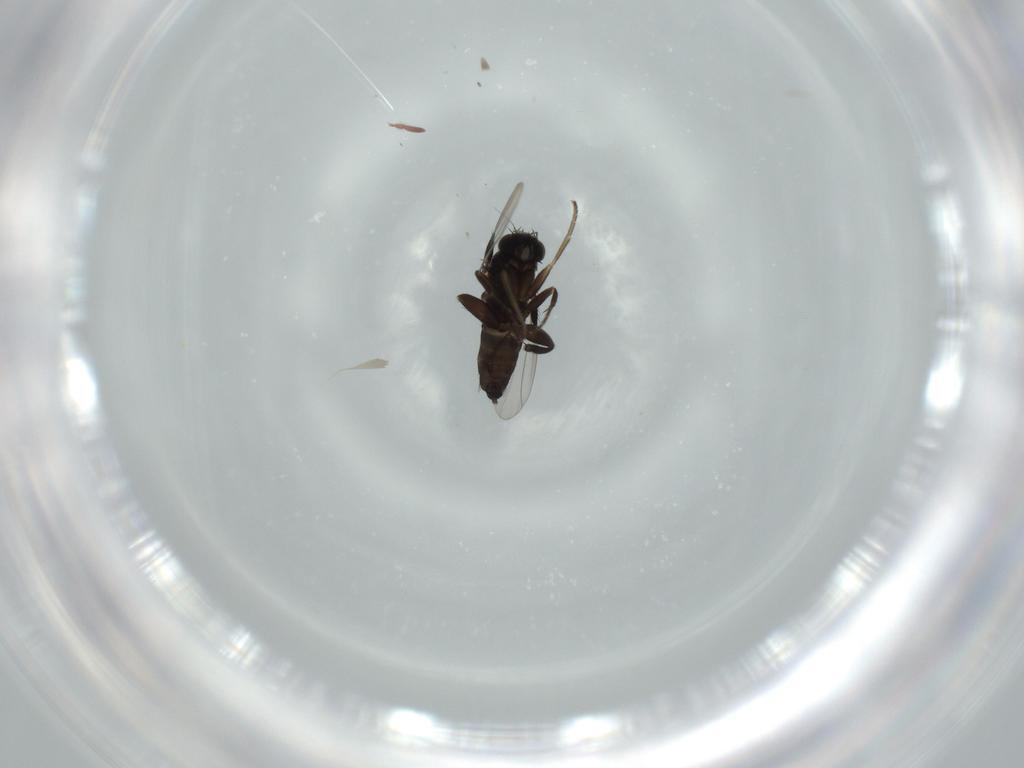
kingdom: Animalia
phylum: Arthropoda
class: Insecta
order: Diptera
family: Phoridae
